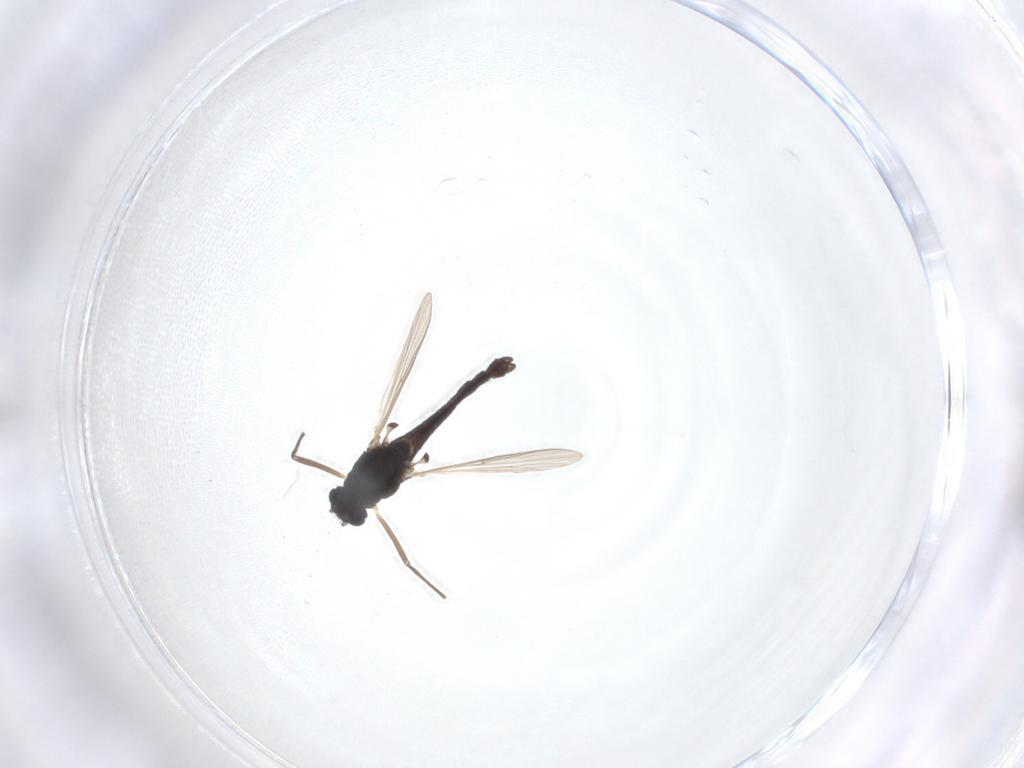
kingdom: Animalia
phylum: Arthropoda
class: Insecta
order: Diptera
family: Chironomidae
